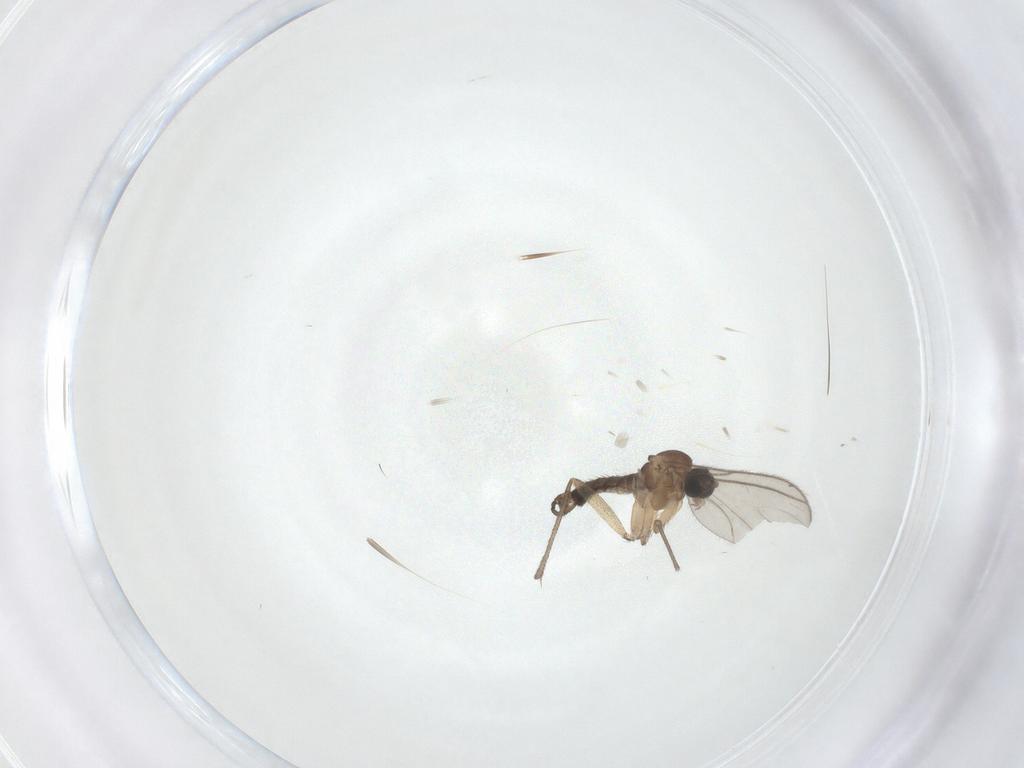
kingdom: Animalia
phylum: Arthropoda
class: Insecta
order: Diptera
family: Sciaridae
